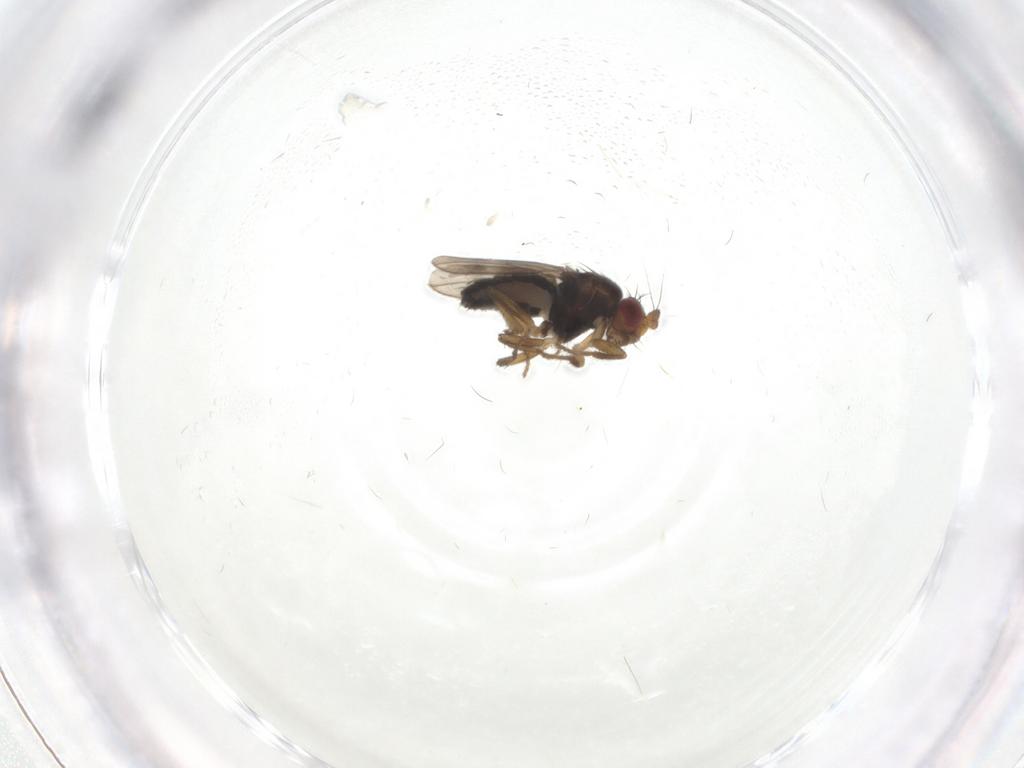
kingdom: Animalia
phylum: Arthropoda
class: Insecta
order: Diptera
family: Sphaeroceridae
